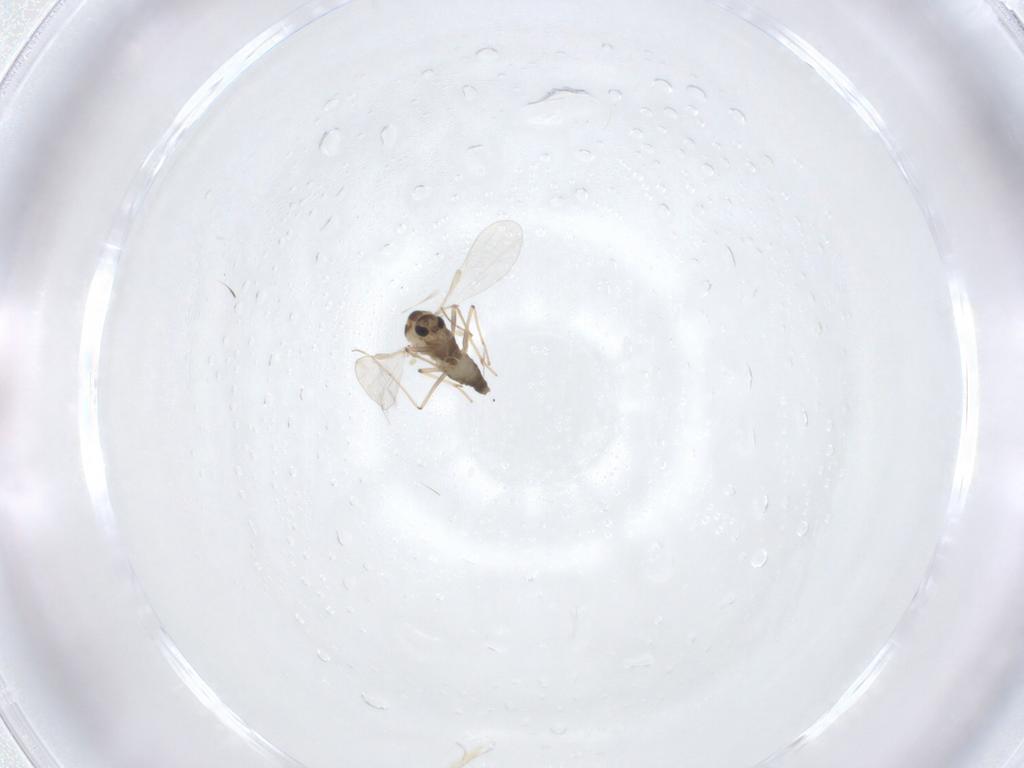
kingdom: Animalia
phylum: Arthropoda
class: Insecta
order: Diptera
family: Chironomidae
